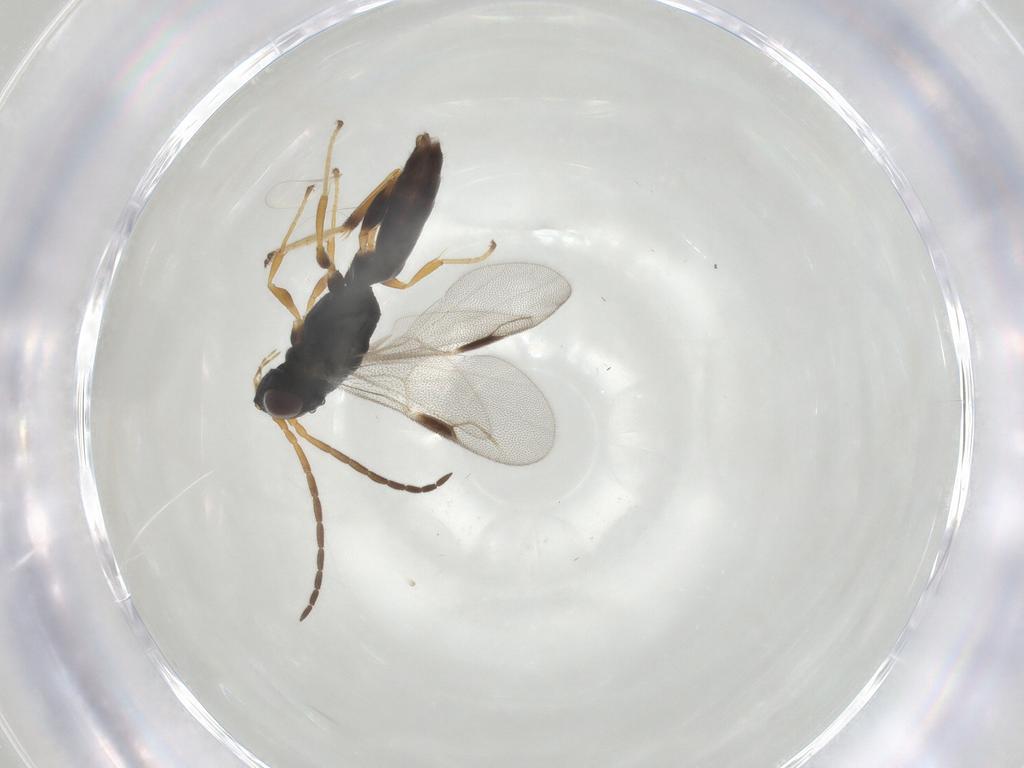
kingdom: Animalia
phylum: Arthropoda
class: Insecta
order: Hymenoptera
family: Dryinidae
